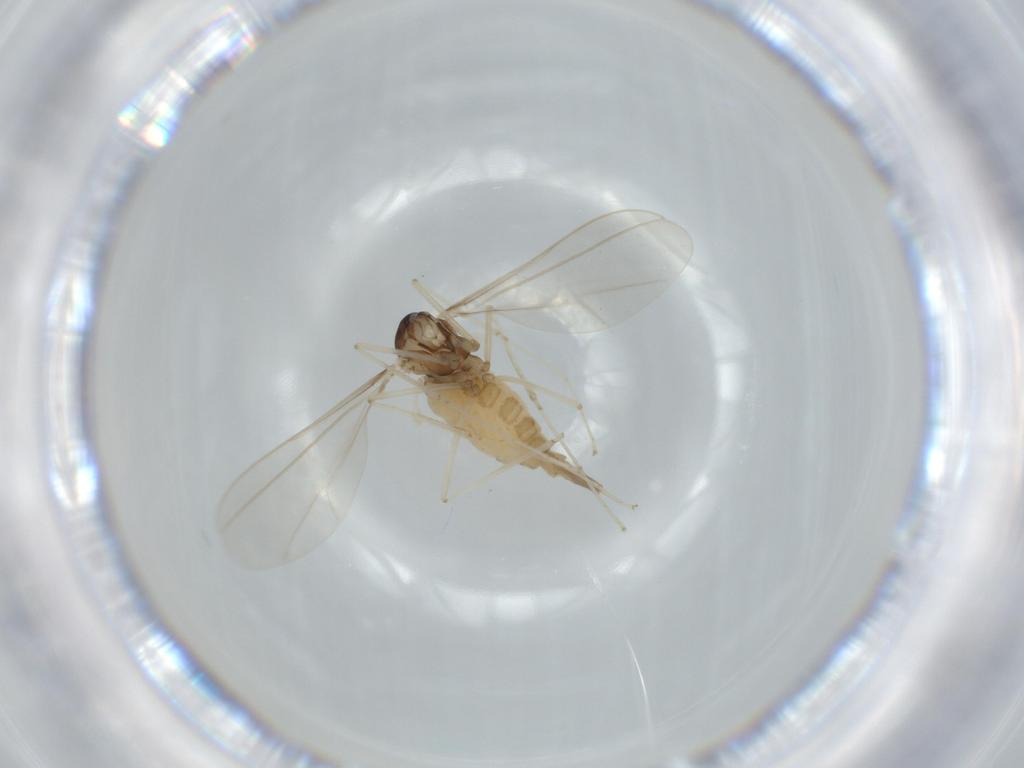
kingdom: Animalia
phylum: Arthropoda
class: Insecta
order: Diptera
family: Cecidomyiidae
